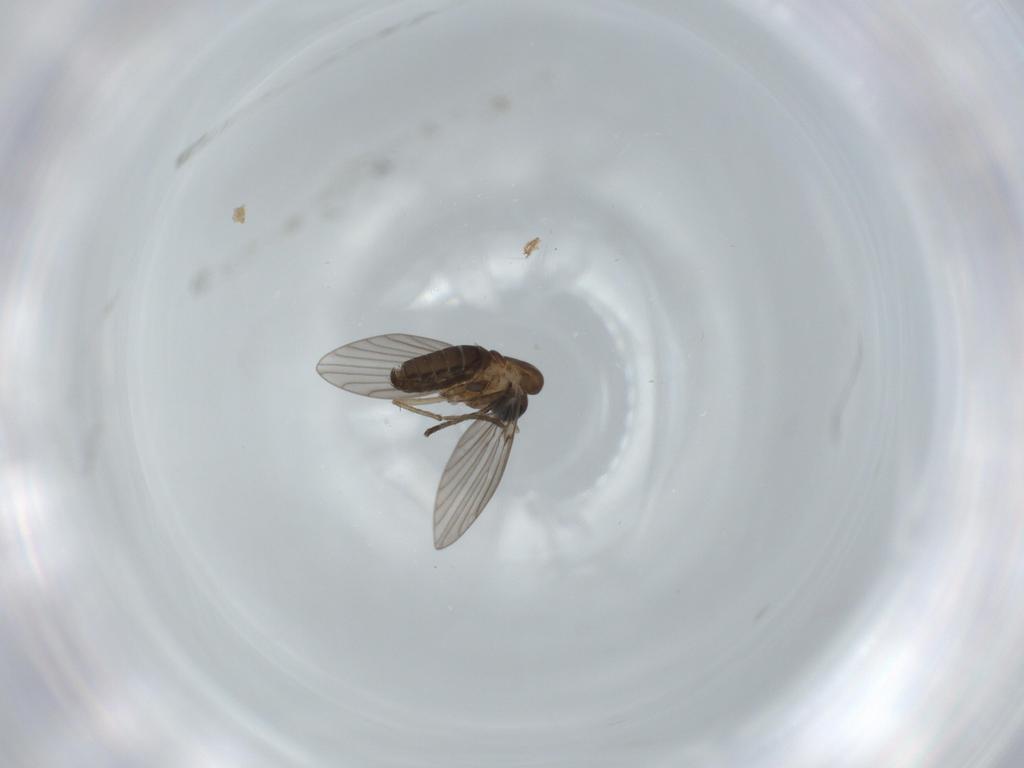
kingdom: Animalia
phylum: Arthropoda
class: Insecta
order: Diptera
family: Psychodidae
